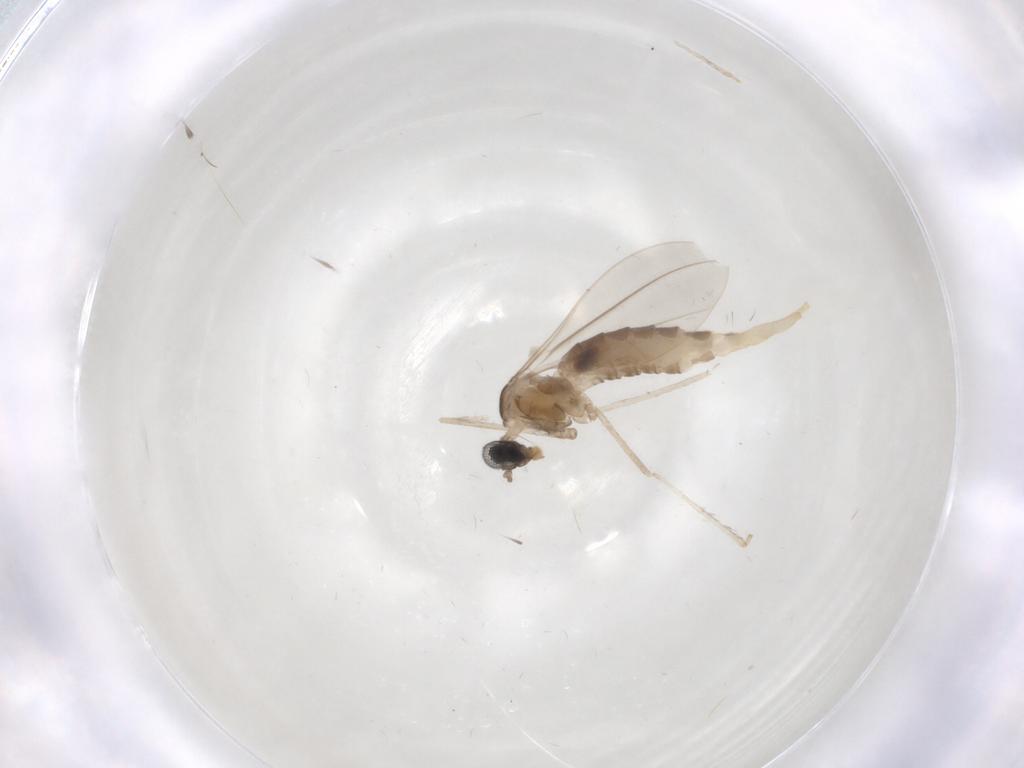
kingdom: Animalia
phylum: Arthropoda
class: Insecta
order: Diptera
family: Cecidomyiidae
